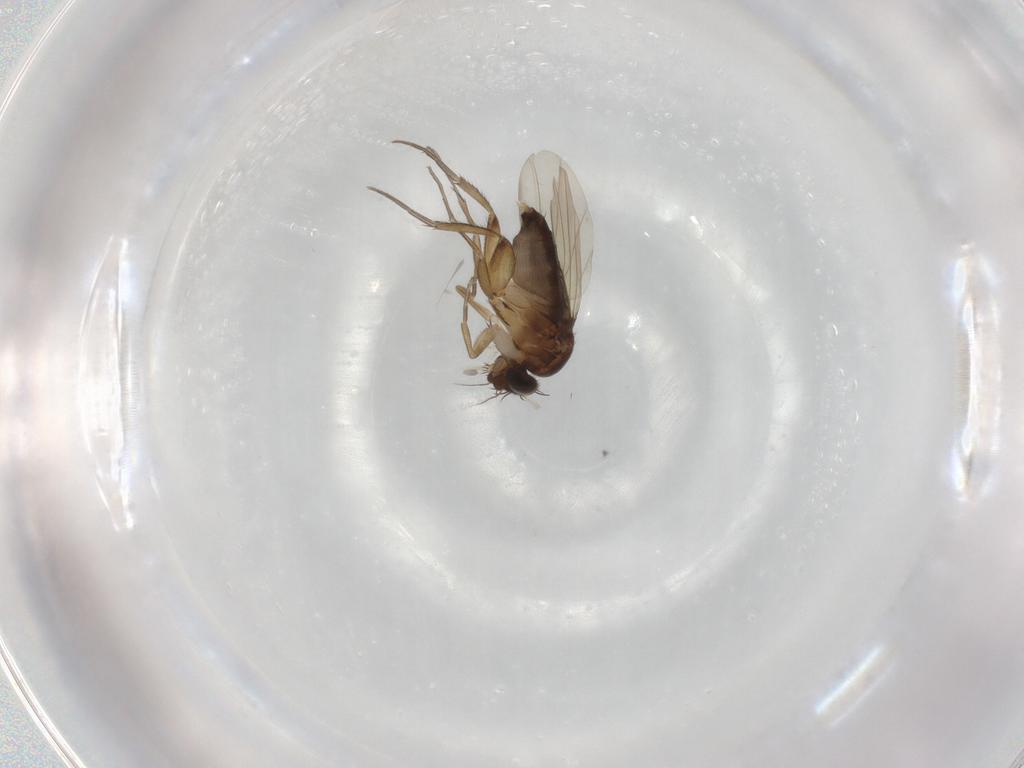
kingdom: Animalia
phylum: Arthropoda
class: Insecta
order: Diptera
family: Phoridae
